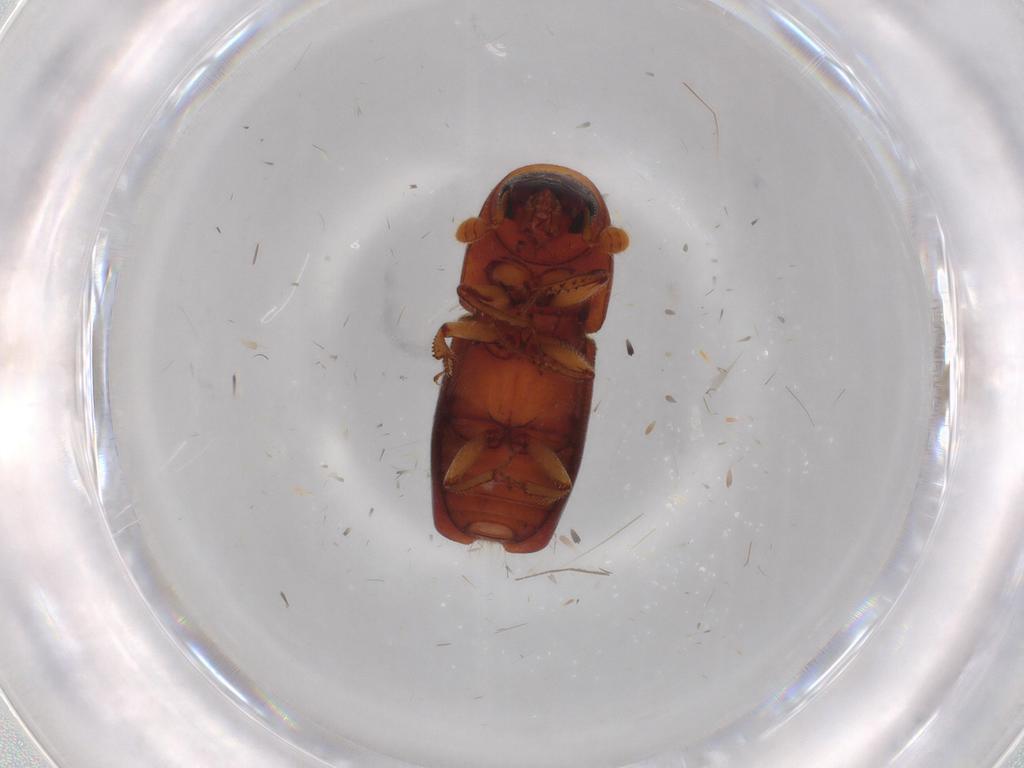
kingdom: Animalia
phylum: Arthropoda
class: Insecta
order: Coleoptera
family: Curculionidae
